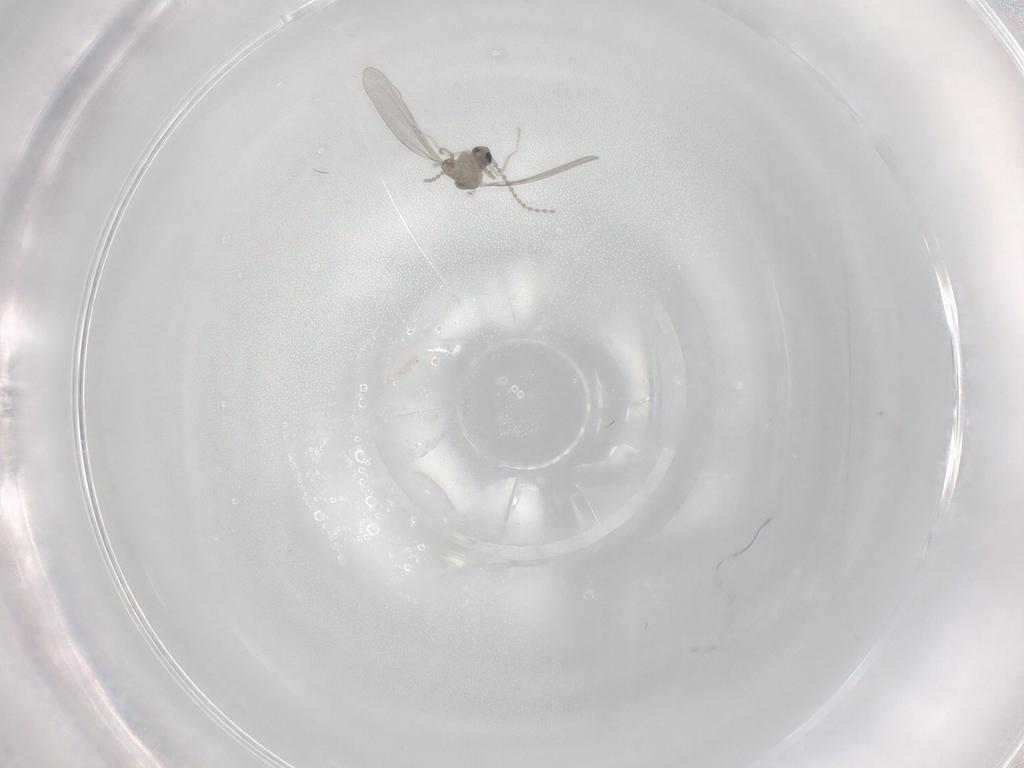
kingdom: Animalia
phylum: Arthropoda
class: Insecta
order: Diptera
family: Cecidomyiidae
